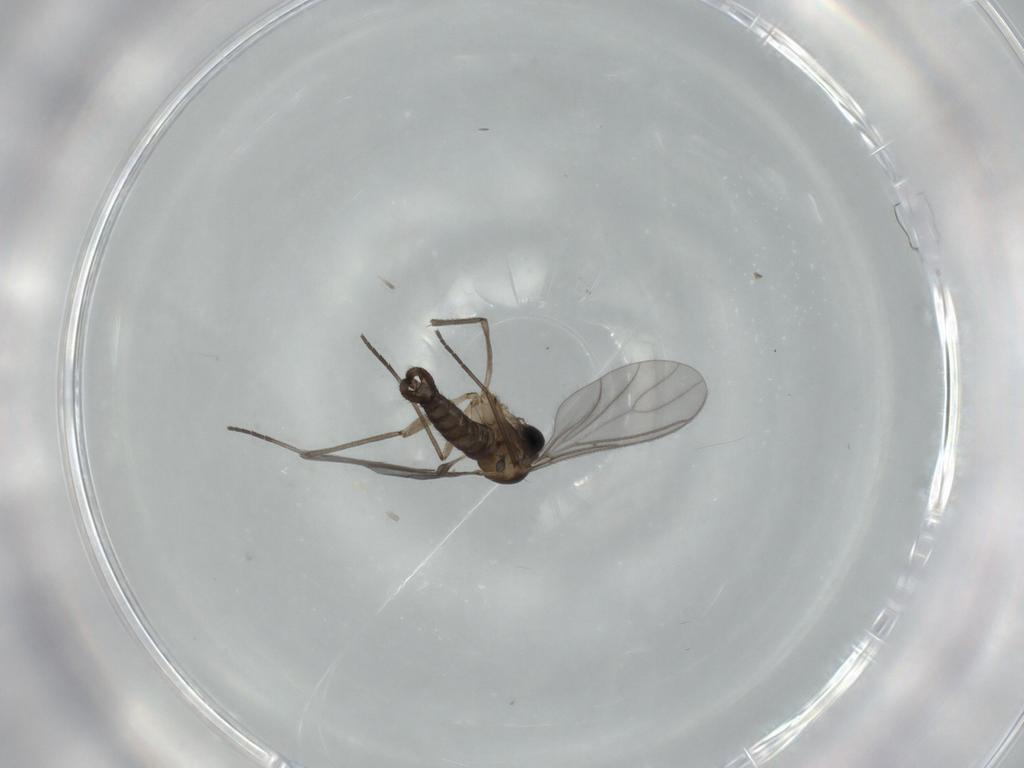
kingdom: Animalia
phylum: Arthropoda
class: Insecta
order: Diptera
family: Sciaridae
